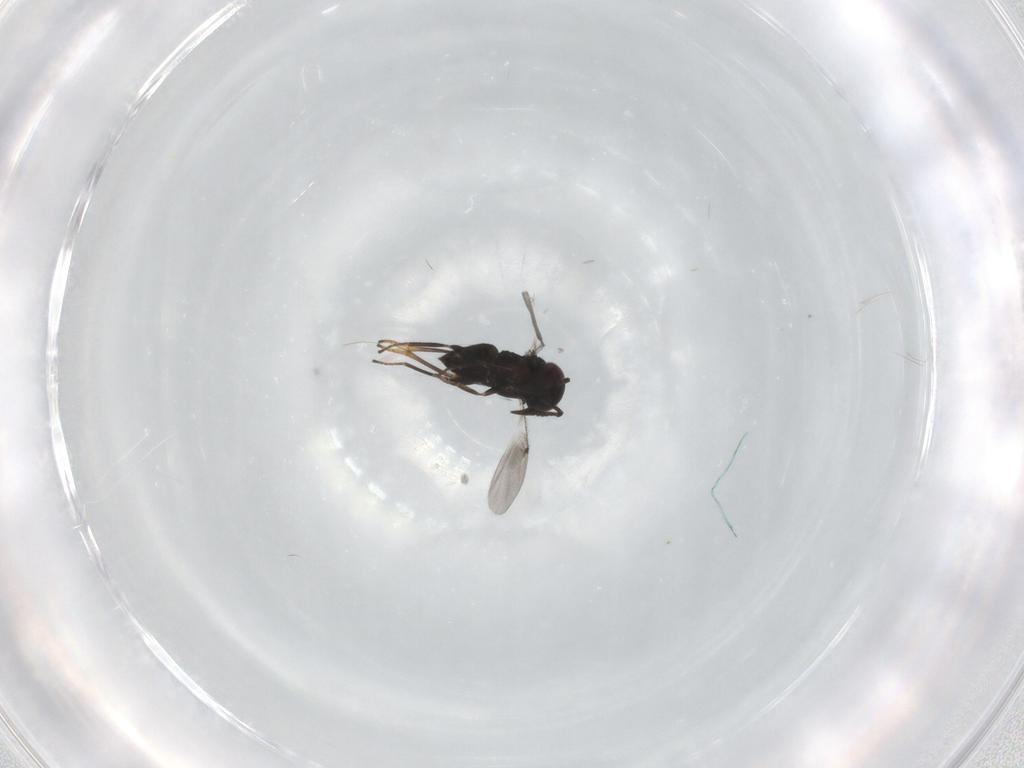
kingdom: Animalia
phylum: Arthropoda
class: Insecta
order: Hymenoptera
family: Encyrtidae
